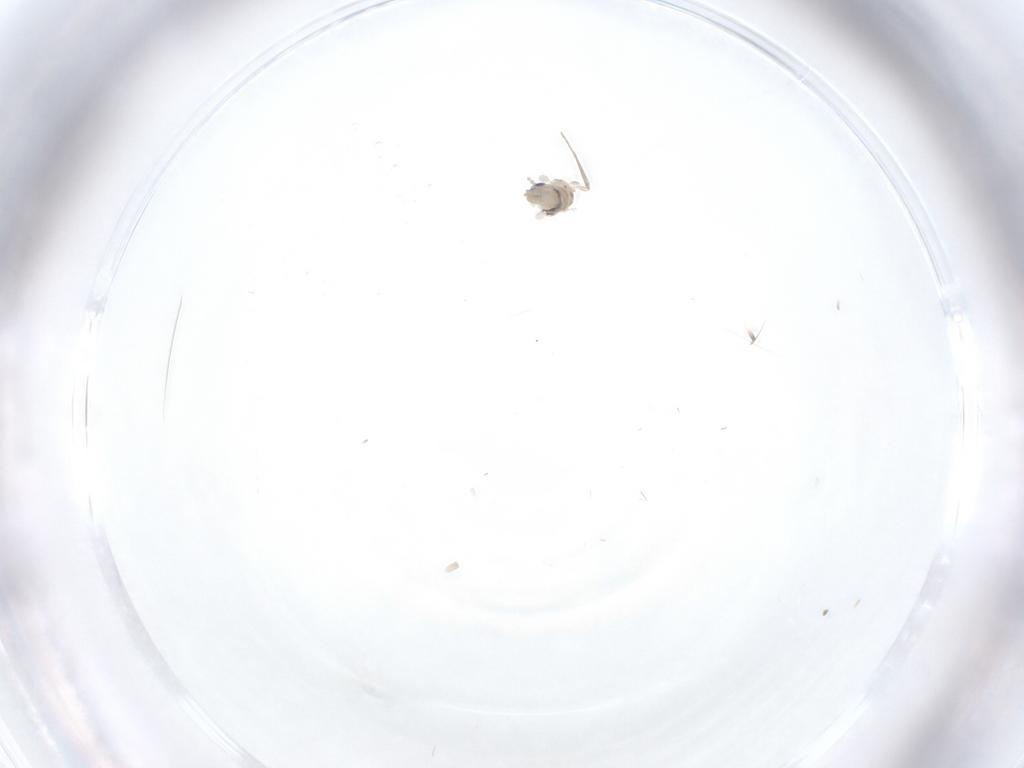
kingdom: Animalia
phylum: Arthropoda
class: Insecta
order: Diptera
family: Psychodidae
